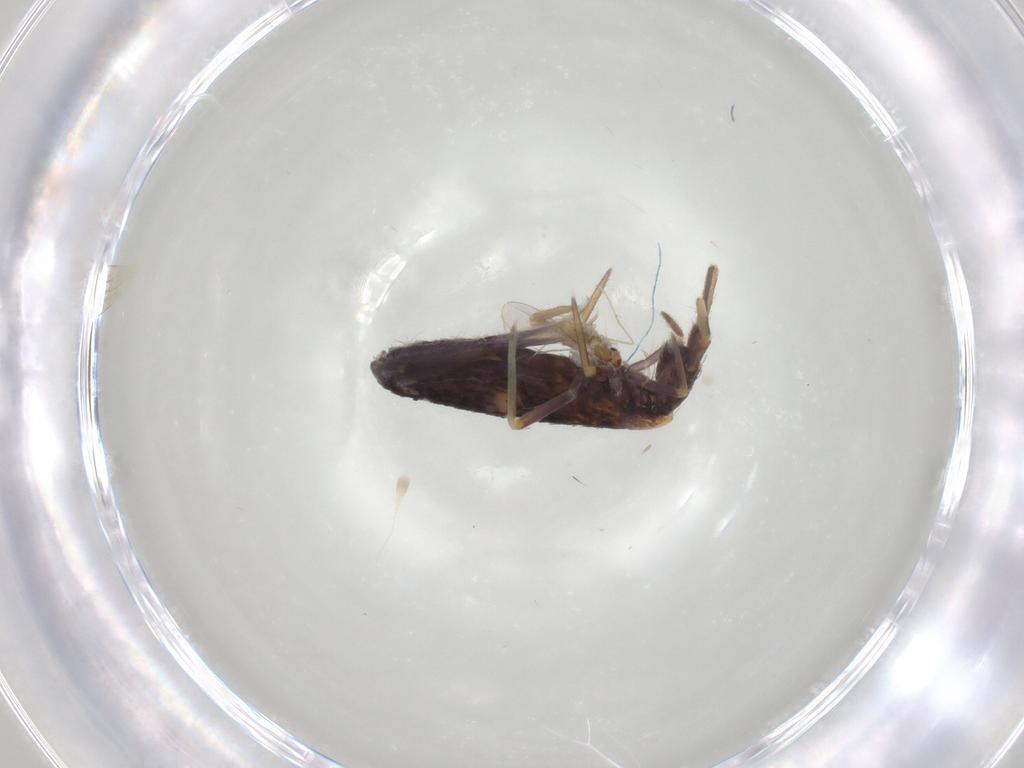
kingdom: Animalia
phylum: Arthropoda
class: Collembola
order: Entomobryomorpha
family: Entomobryidae
